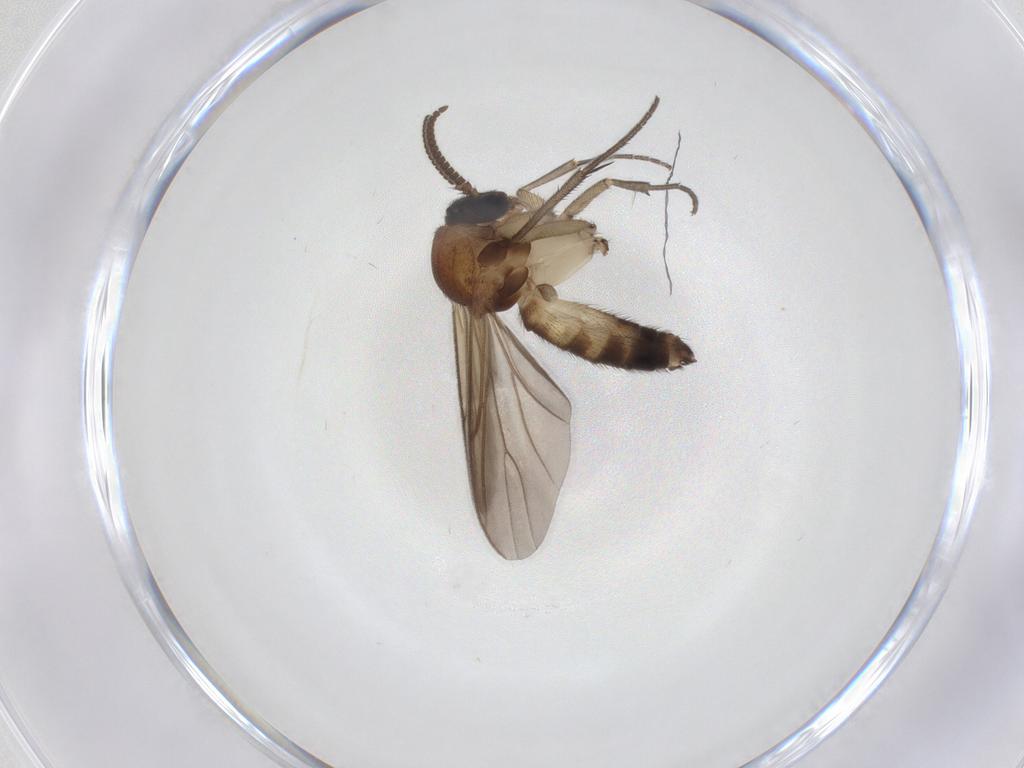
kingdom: Animalia
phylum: Arthropoda
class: Insecta
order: Diptera
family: Mycetophilidae
